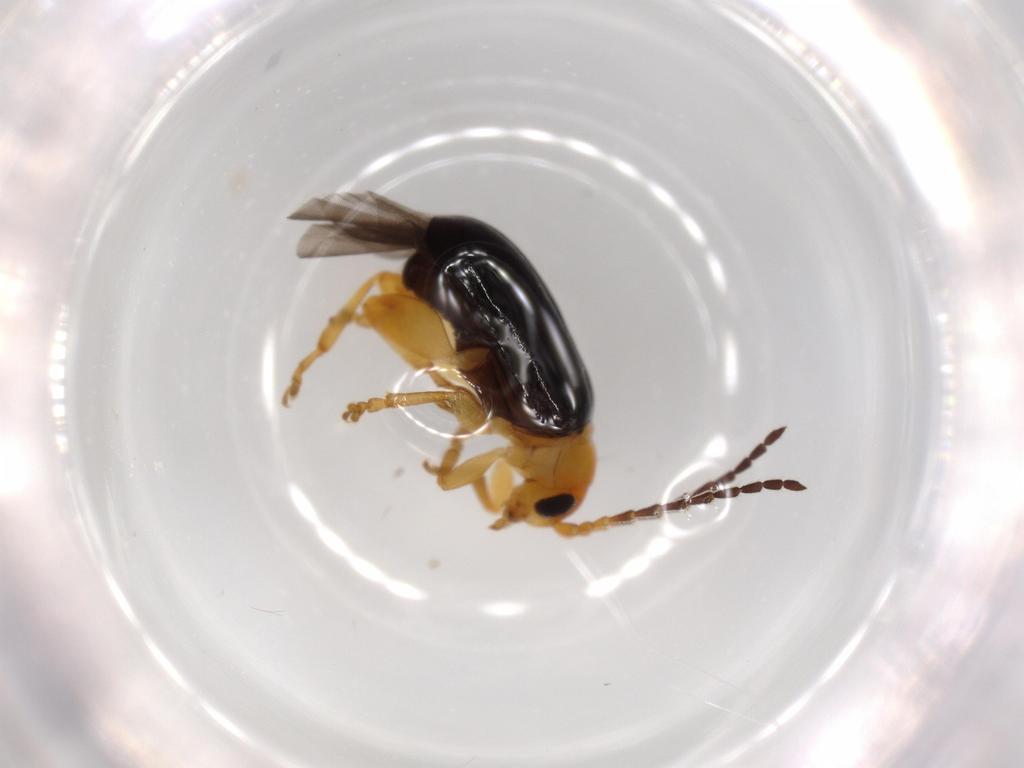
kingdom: Animalia
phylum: Arthropoda
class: Insecta
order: Coleoptera
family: Chrysomelidae
